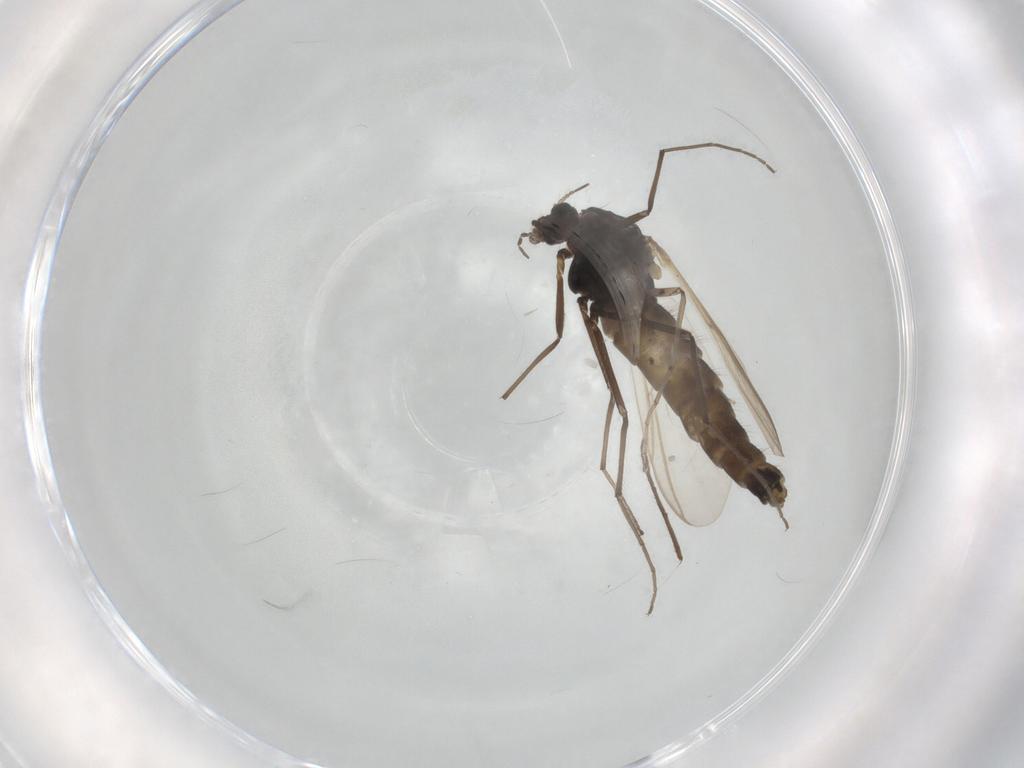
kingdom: Animalia
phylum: Arthropoda
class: Insecta
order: Diptera
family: Chironomidae
